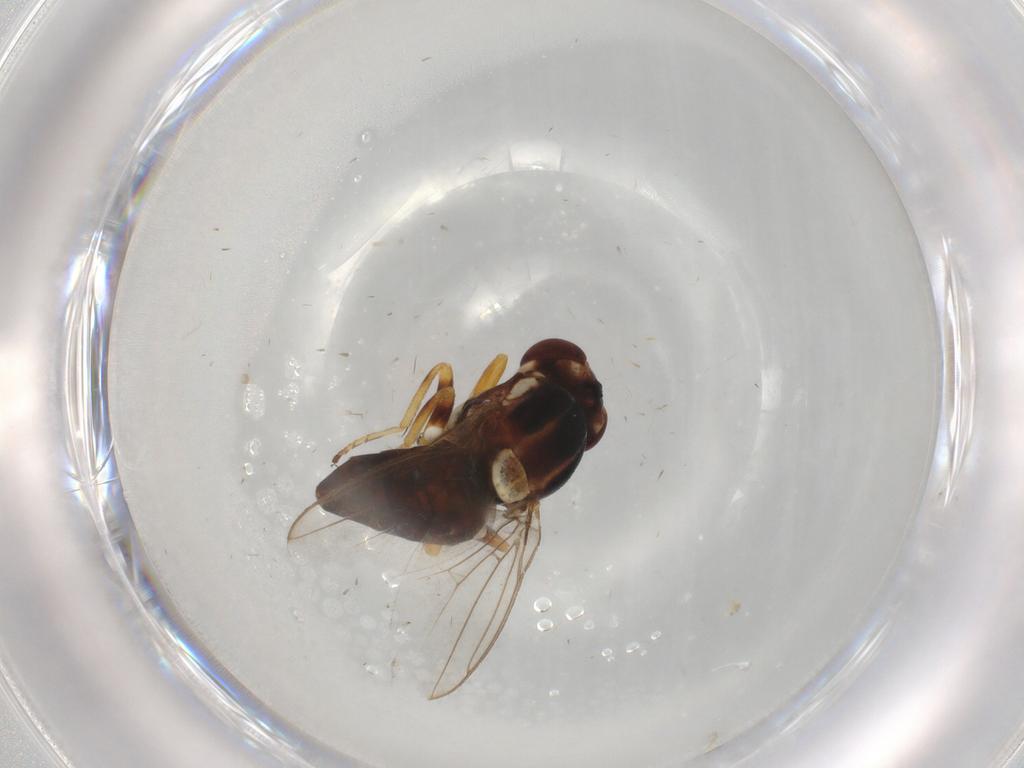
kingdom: Animalia
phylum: Arthropoda
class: Insecta
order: Diptera
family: Chloropidae
